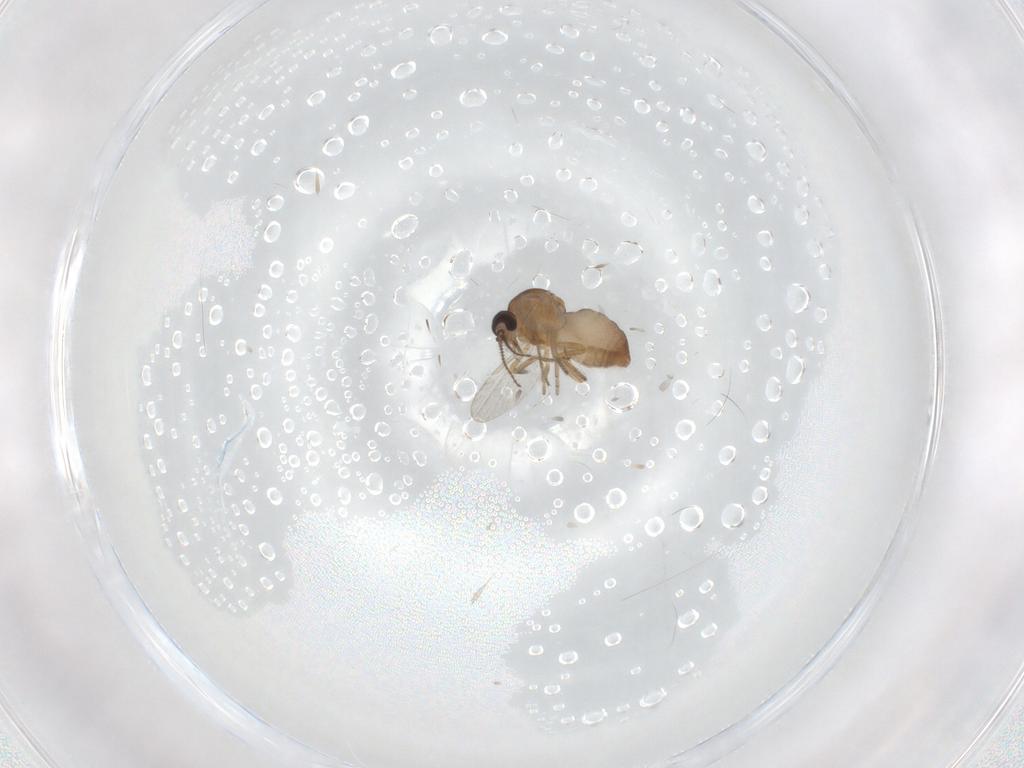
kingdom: Animalia
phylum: Arthropoda
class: Insecta
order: Diptera
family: Ceratopogonidae
